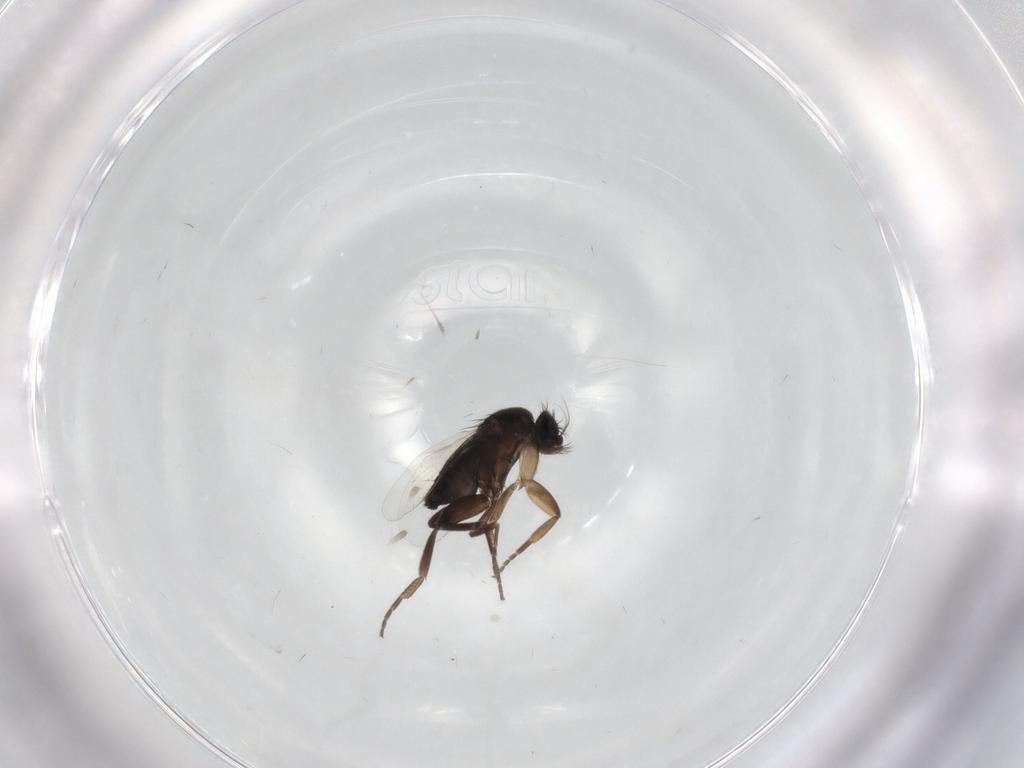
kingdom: Animalia
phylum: Arthropoda
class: Insecta
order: Diptera
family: Phoridae
